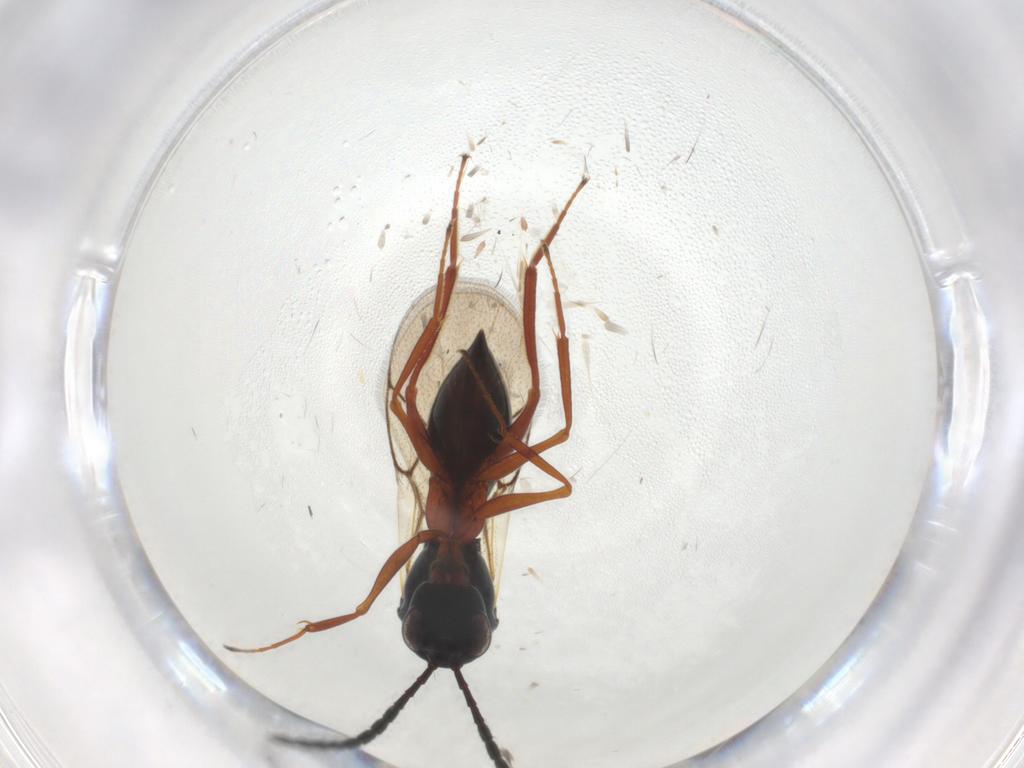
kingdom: Animalia
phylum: Arthropoda
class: Insecta
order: Hymenoptera
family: Figitidae
